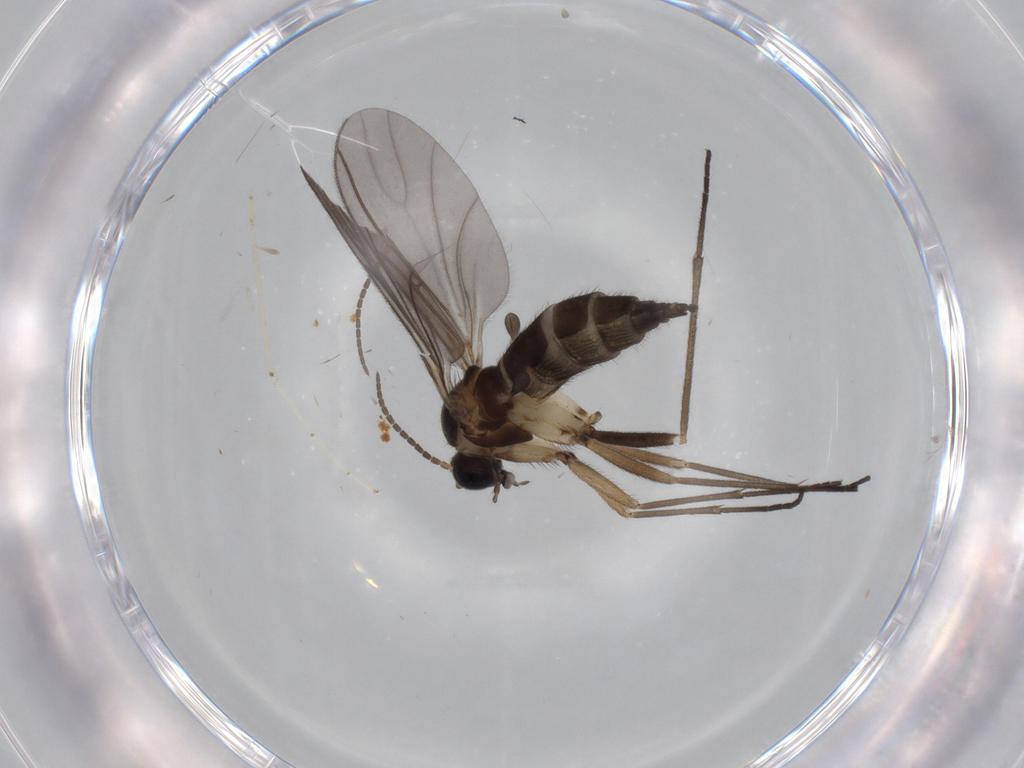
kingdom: Animalia
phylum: Arthropoda
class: Insecta
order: Diptera
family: Sciaridae
